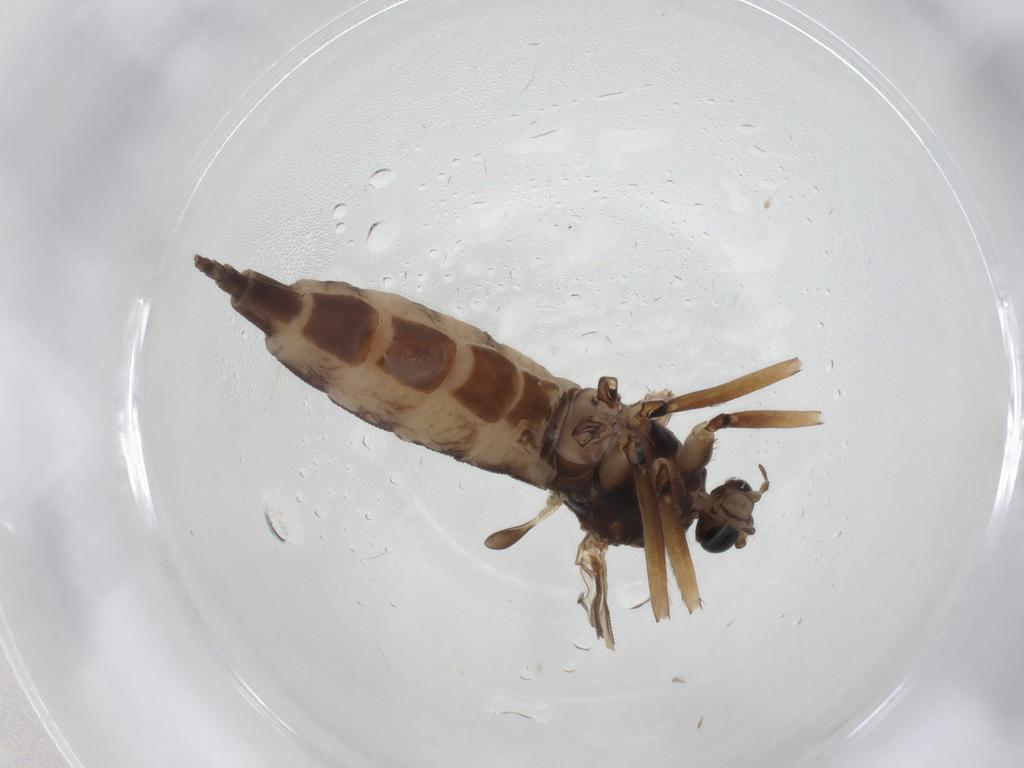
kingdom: Animalia
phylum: Arthropoda
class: Insecta
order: Diptera
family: Sciaridae
